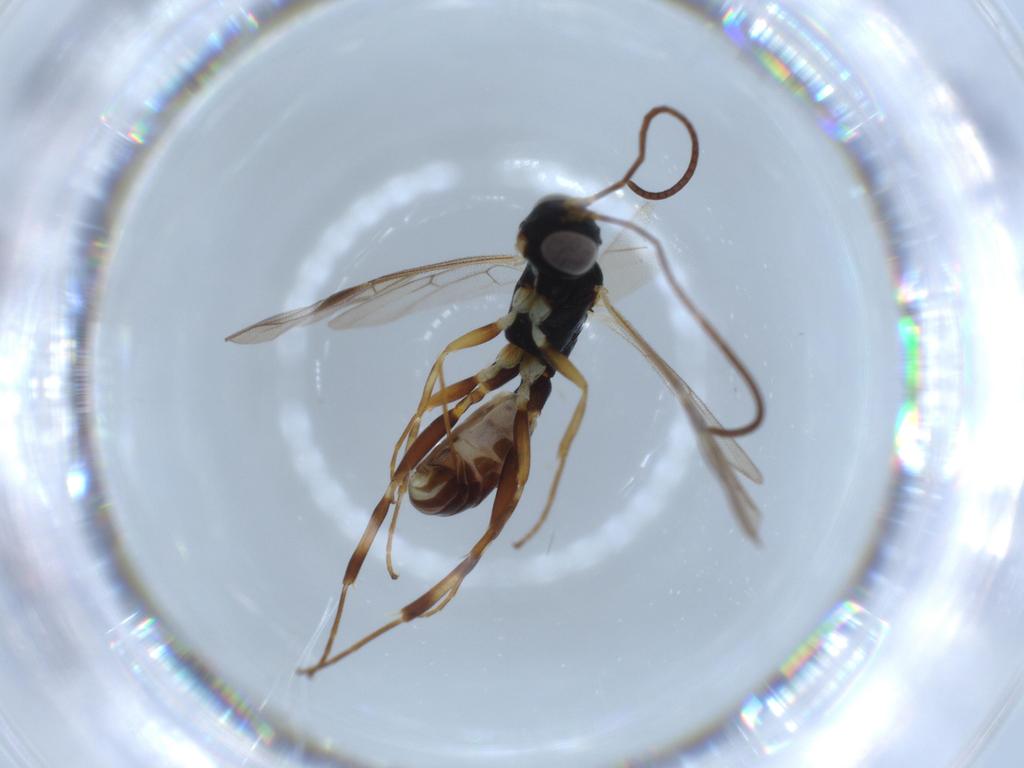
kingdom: Animalia
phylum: Arthropoda
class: Insecta
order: Hymenoptera
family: Ichneumonidae
